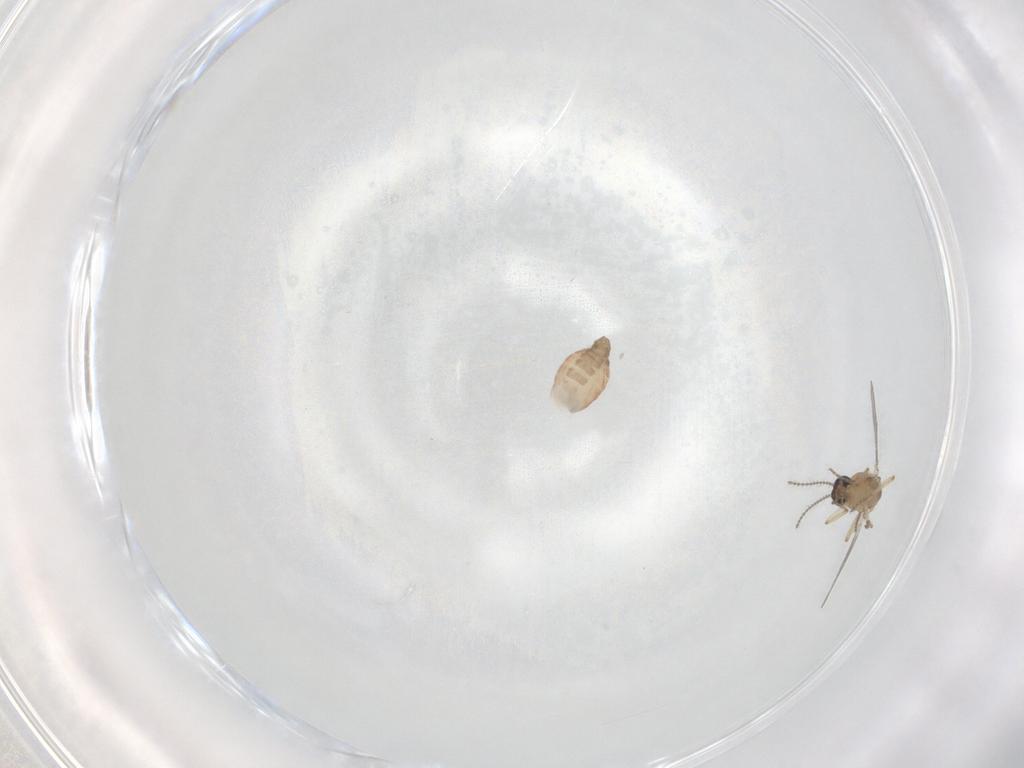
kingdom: Animalia
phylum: Arthropoda
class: Insecta
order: Diptera
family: Ceratopogonidae
